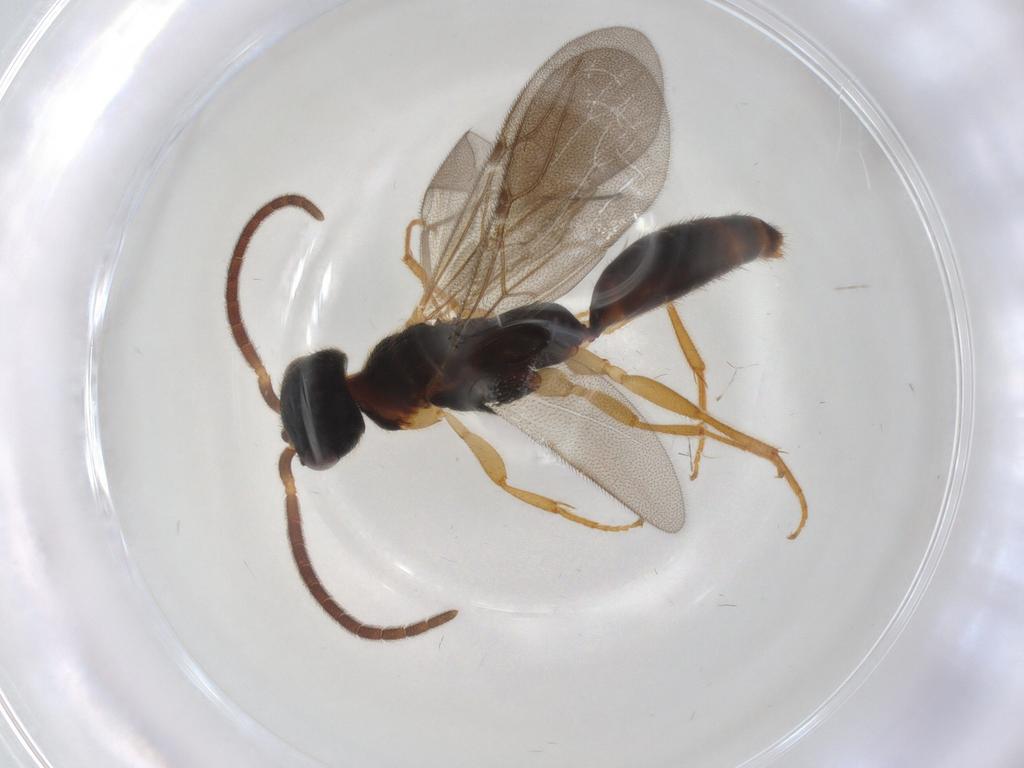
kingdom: Animalia
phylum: Arthropoda
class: Insecta
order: Hymenoptera
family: Bethylidae
